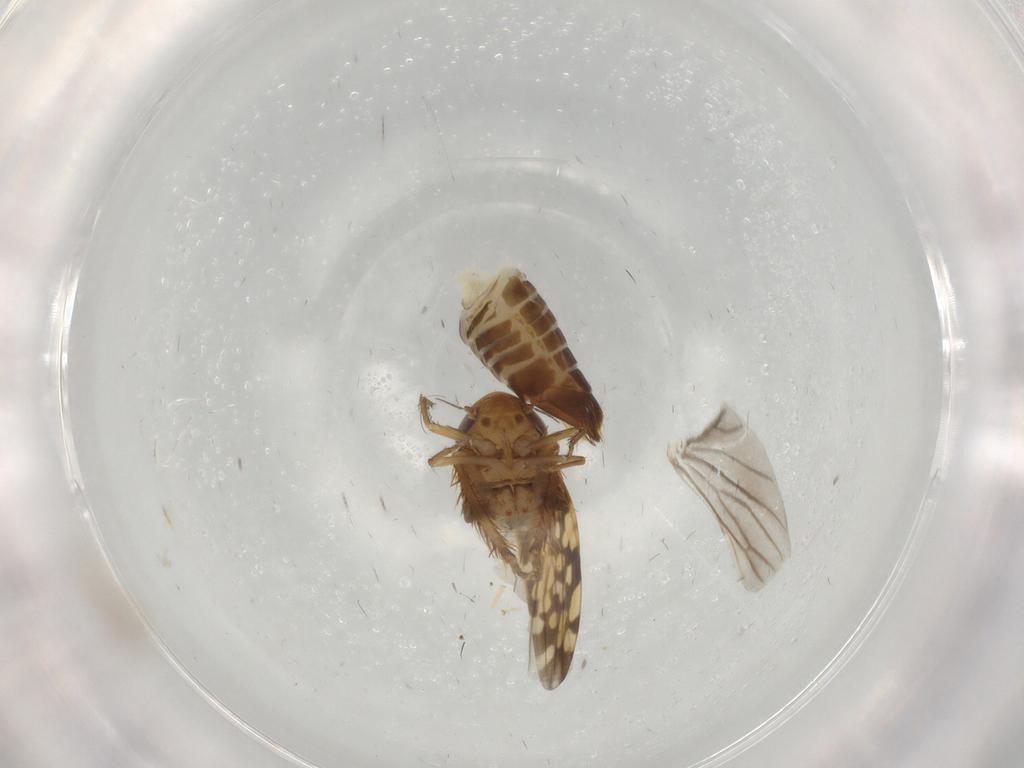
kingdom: Animalia
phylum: Arthropoda
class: Insecta
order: Hemiptera
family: Cicadellidae
